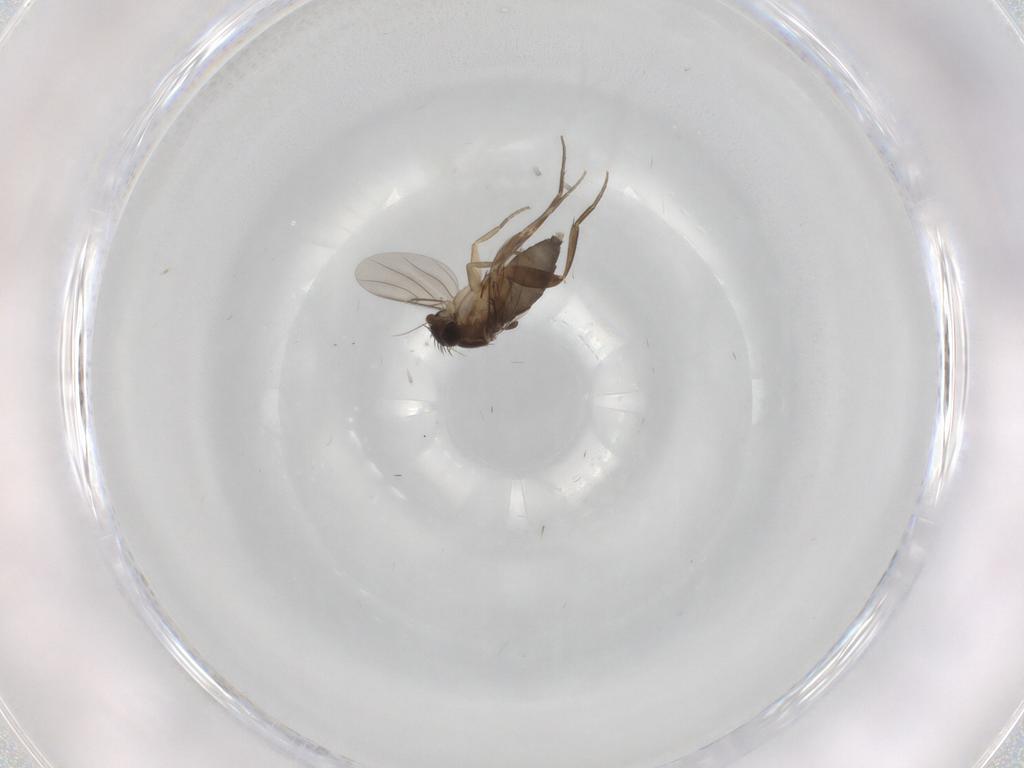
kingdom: Animalia
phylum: Arthropoda
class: Insecta
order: Diptera
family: Phoridae
